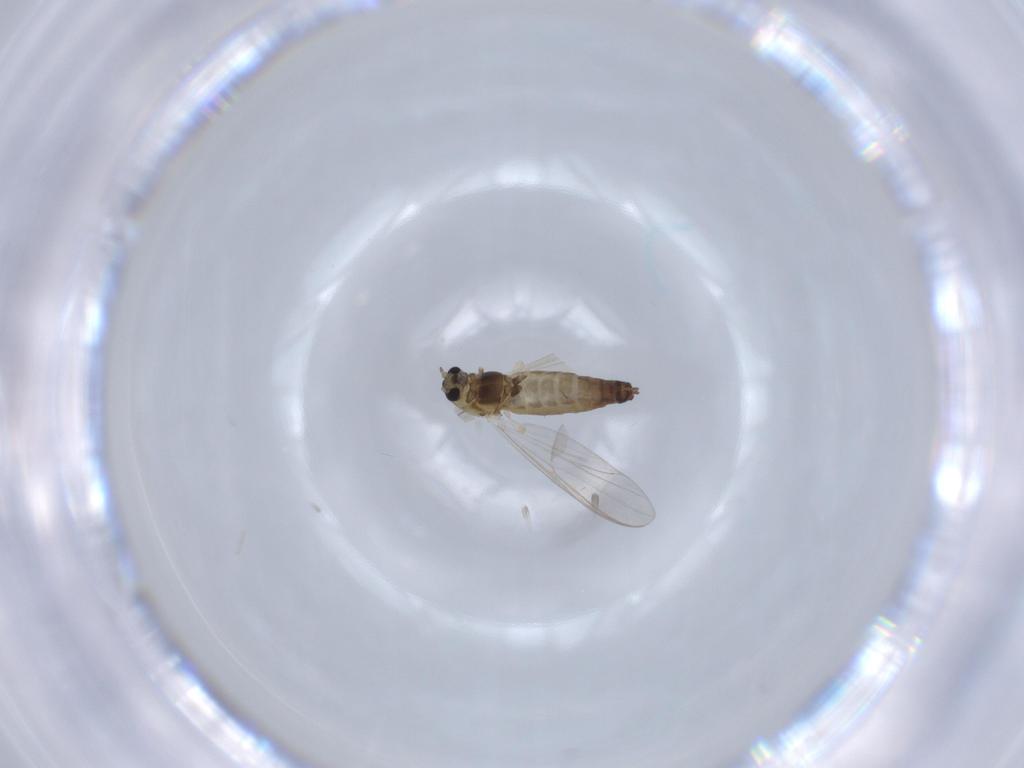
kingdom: Animalia
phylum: Arthropoda
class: Insecta
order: Diptera
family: Chironomidae
